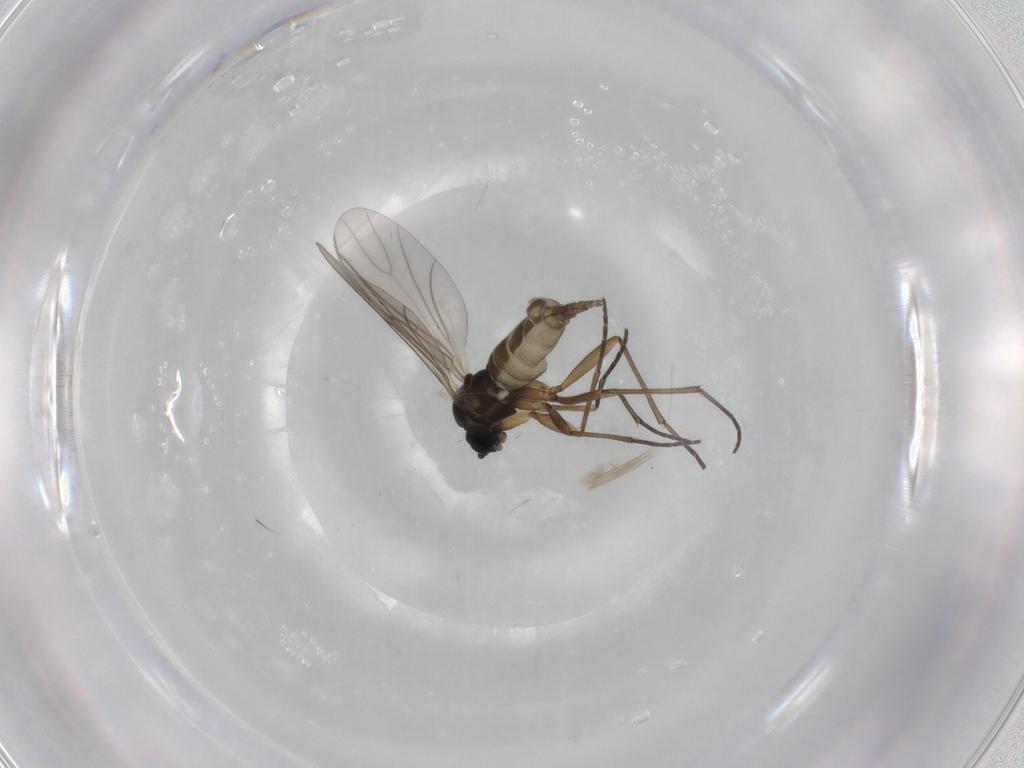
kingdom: Animalia
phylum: Arthropoda
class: Insecta
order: Diptera
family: Sciaridae
